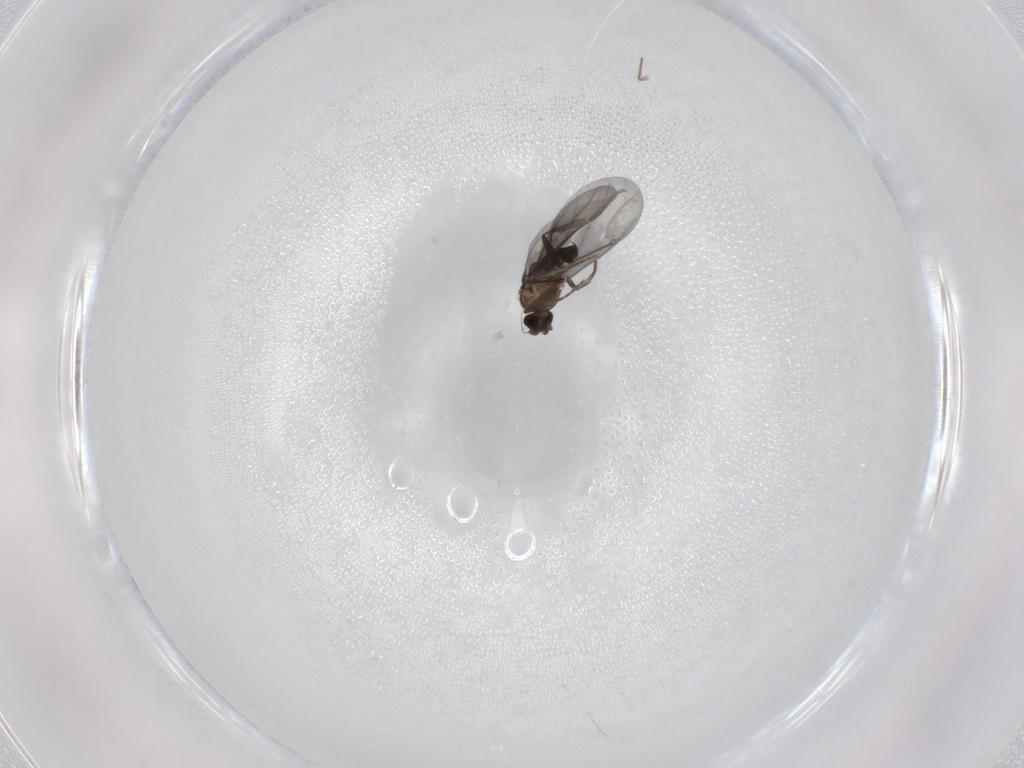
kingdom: Animalia
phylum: Arthropoda
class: Insecta
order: Diptera
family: Phoridae
